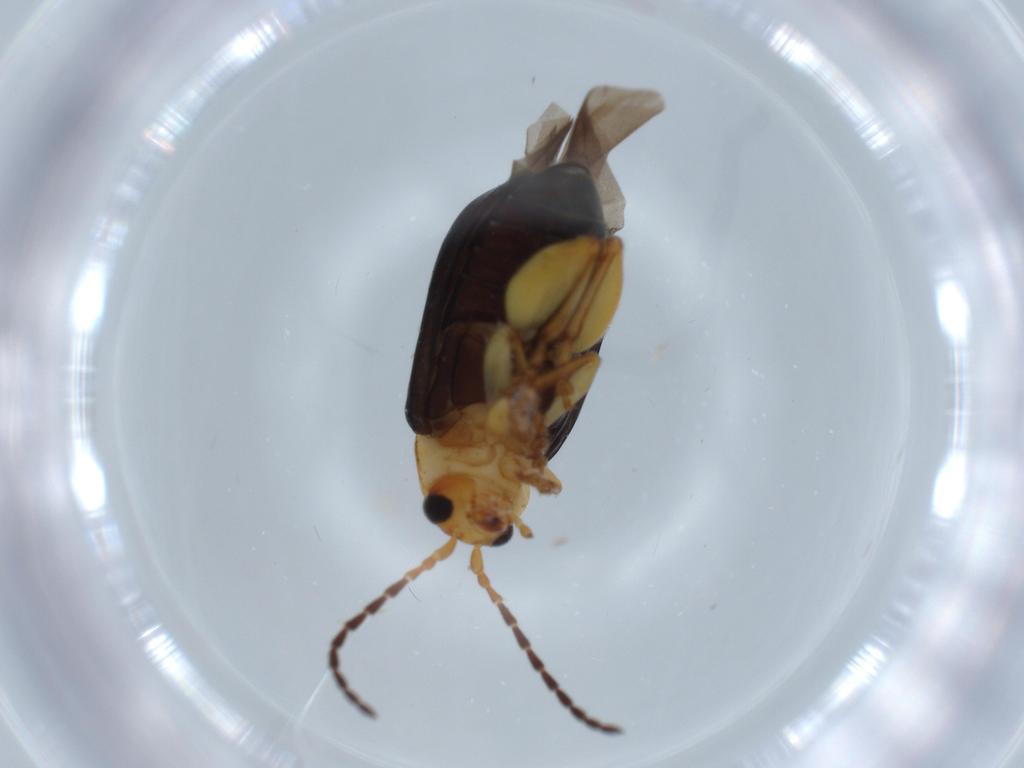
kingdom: Animalia
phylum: Arthropoda
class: Insecta
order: Coleoptera
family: Chrysomelidae
